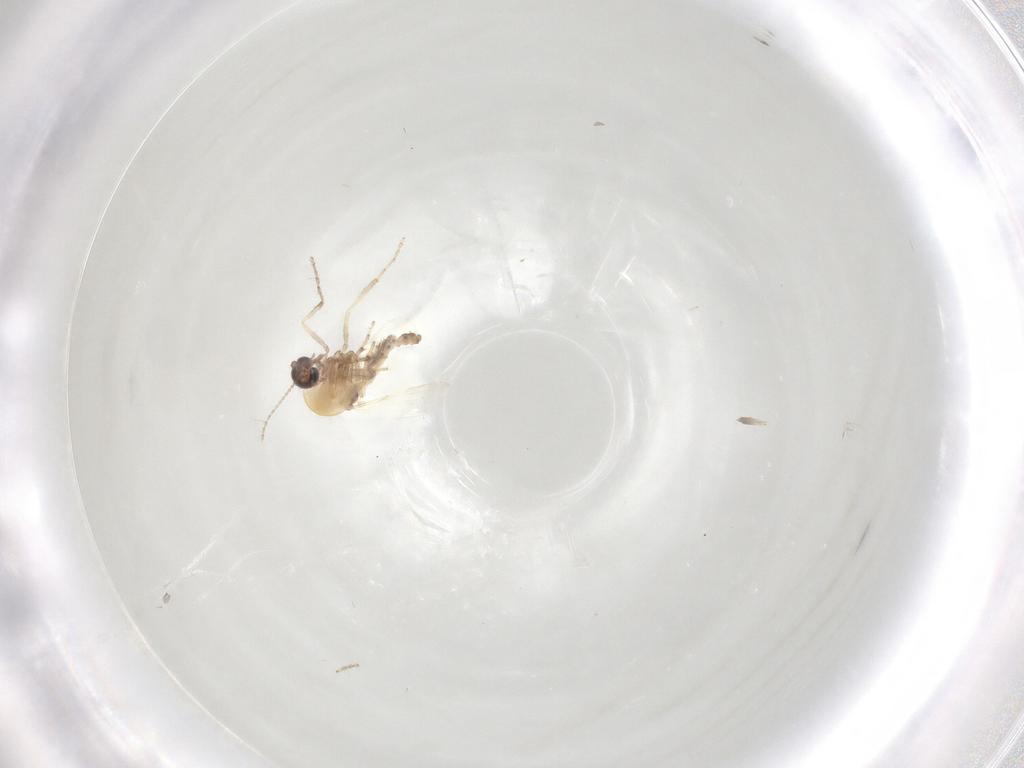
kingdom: Animalia
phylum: Arthropoda
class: Insecta
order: Diptera
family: Ceratopogonidae
